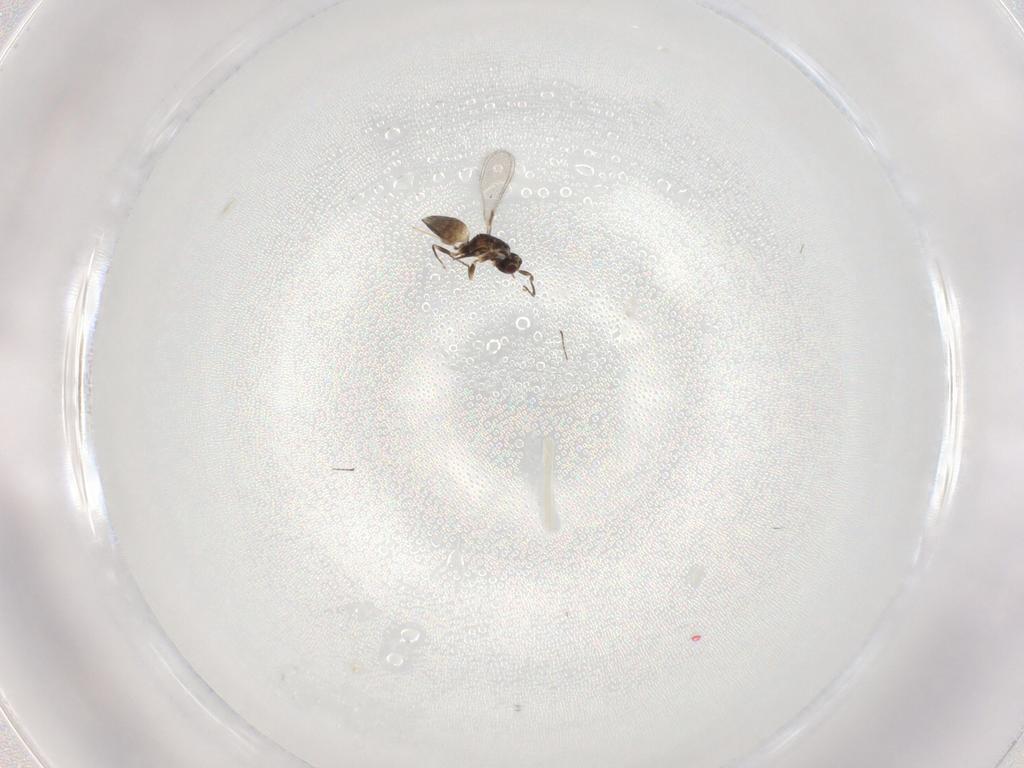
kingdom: Animalia
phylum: Arthropoda
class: Insecta
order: Hymenoptera
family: Mymaridae
